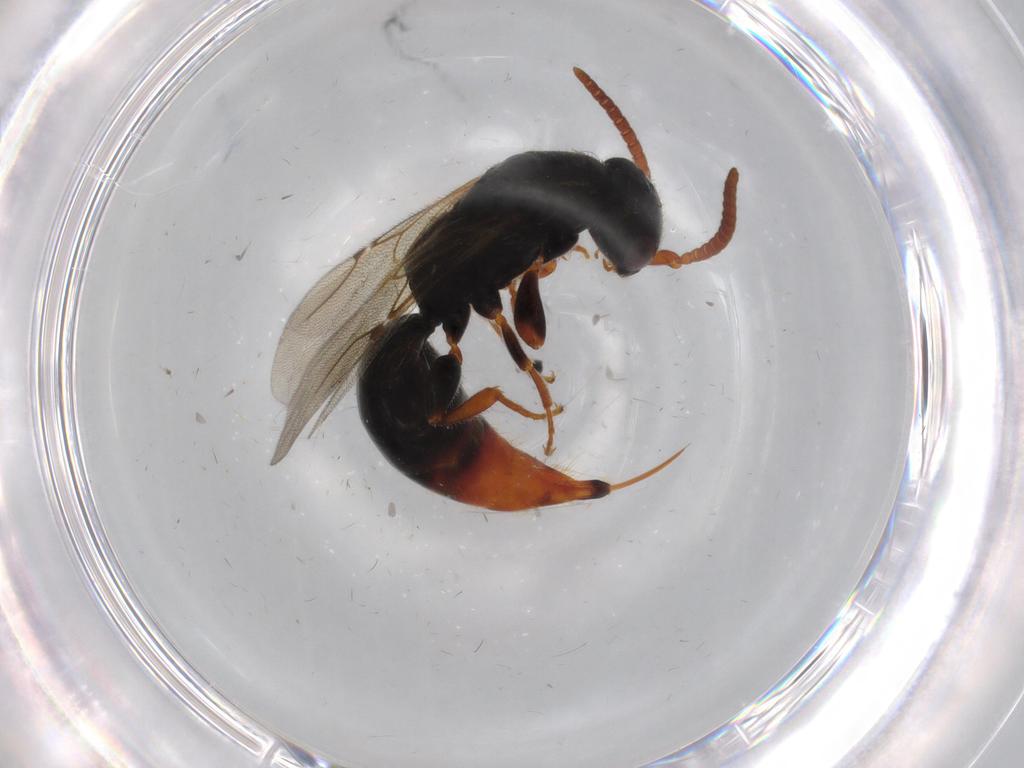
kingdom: Animalia
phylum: Arthropoda
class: Insecta
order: Hymenoptera
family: Bethylidae
